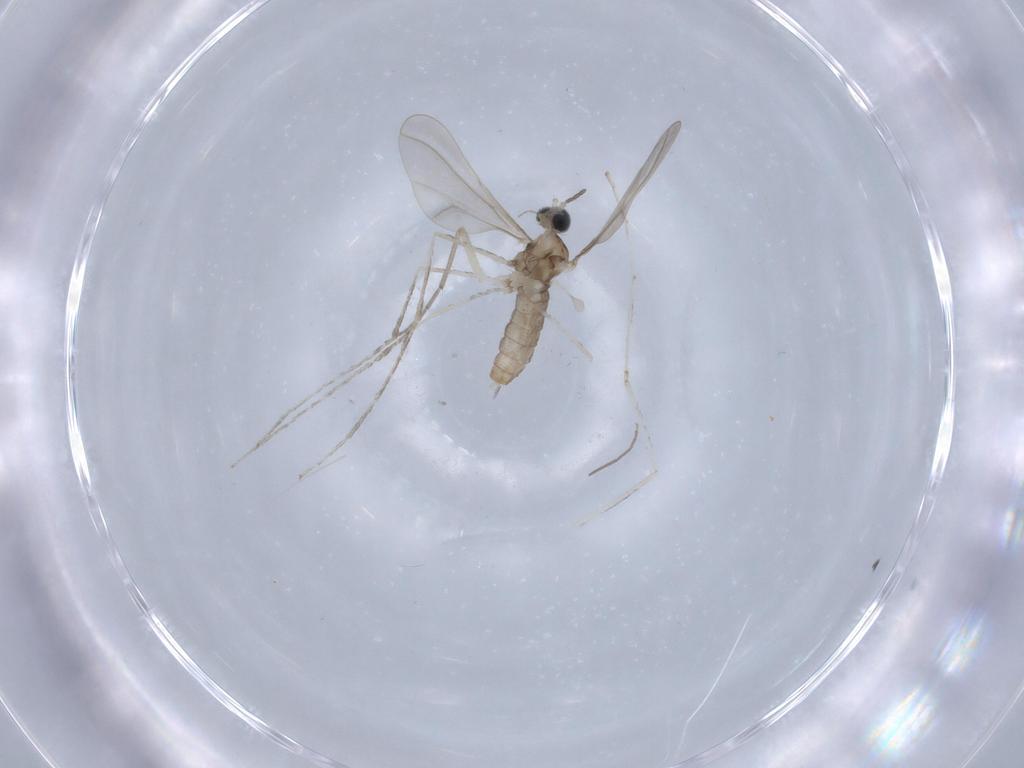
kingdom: Animalia
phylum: Arthropoda
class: Insecta
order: Diptera
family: Cecidomyiidae
